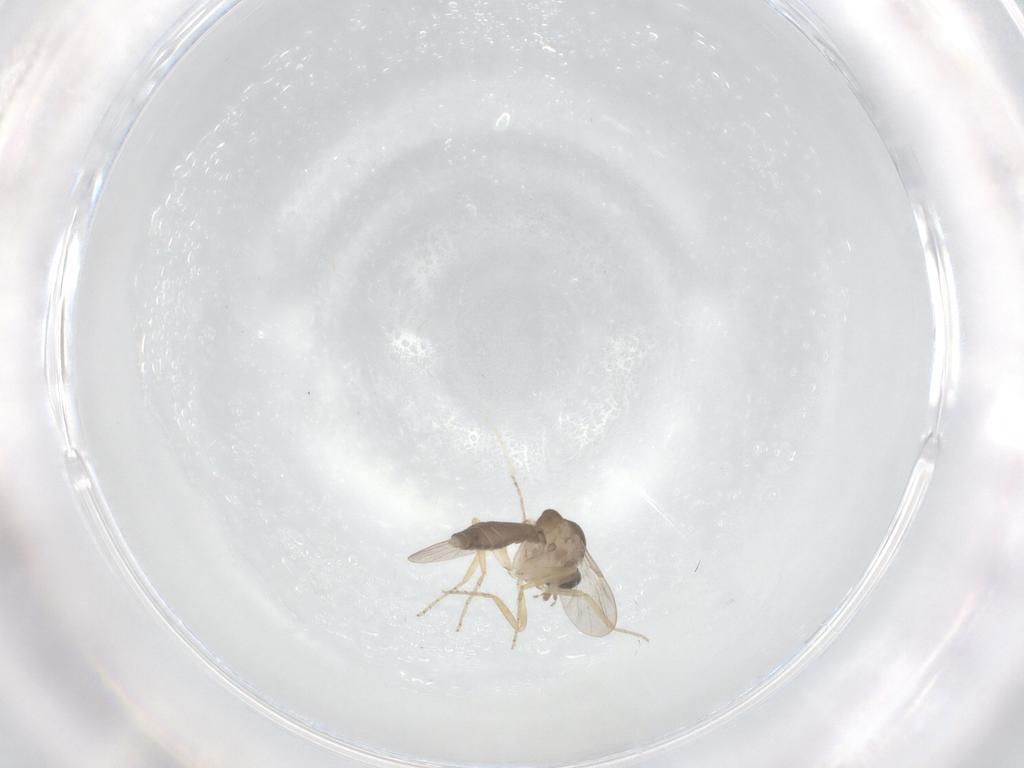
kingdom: Animalia
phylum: Arthropoda
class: Insecta
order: Diptera
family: Ceratopogonidae
